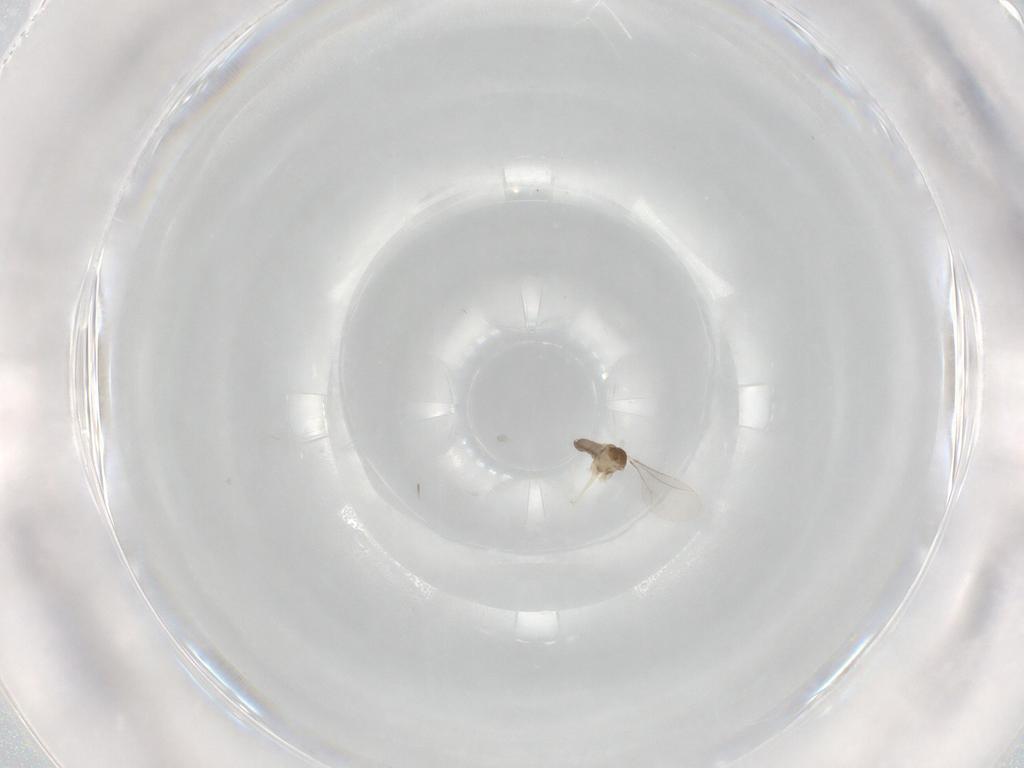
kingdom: Animalia
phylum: Arthropoda
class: Insecta
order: Diptera
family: Cecidomyiidae
